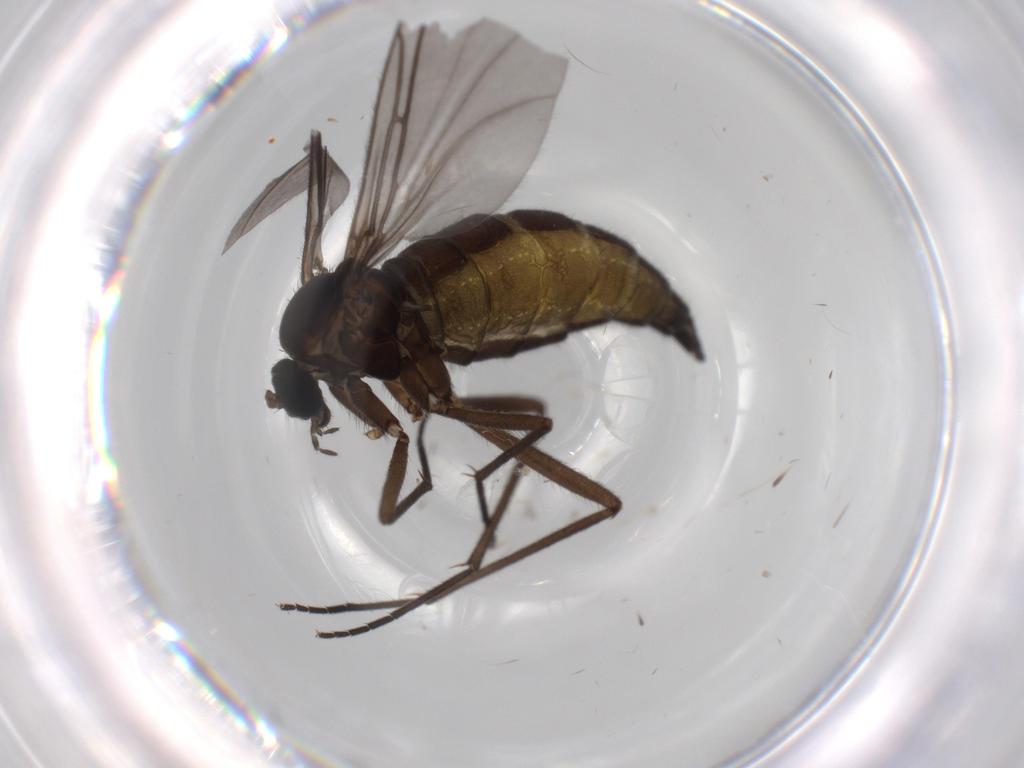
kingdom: Animalia
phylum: Arthropoda
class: Insecta
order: Diptera
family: Sciaridae
